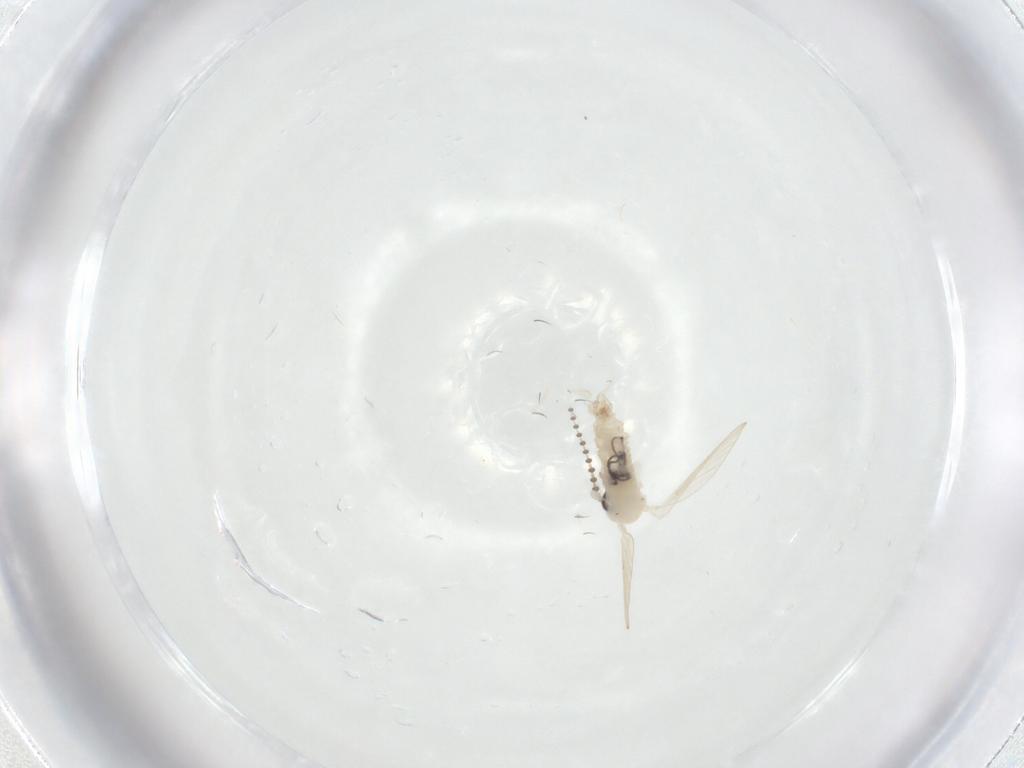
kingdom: Animalia
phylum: Arthropoda
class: Insecta
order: Diptera
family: Psychodidae
